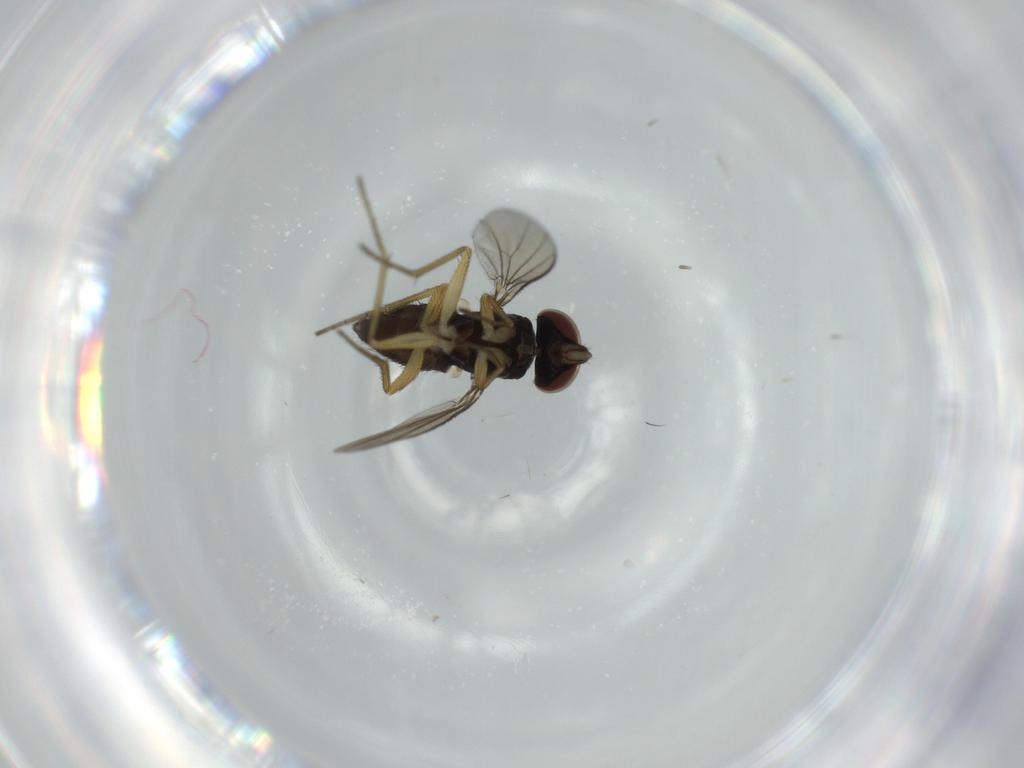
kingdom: Animalia
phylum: Arthropoda
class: Insecta
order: Diptera
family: Dolichopodidae
